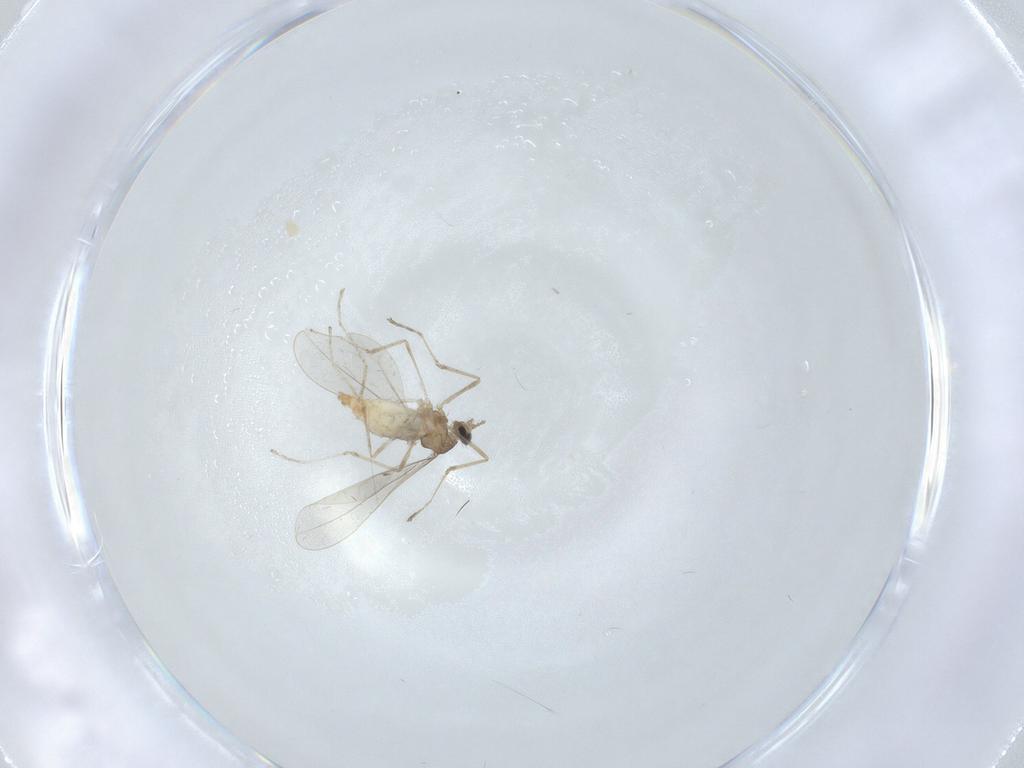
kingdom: Animalia
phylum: Arthropoda
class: Insecta
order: Diptera
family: Cecidomyiidae
